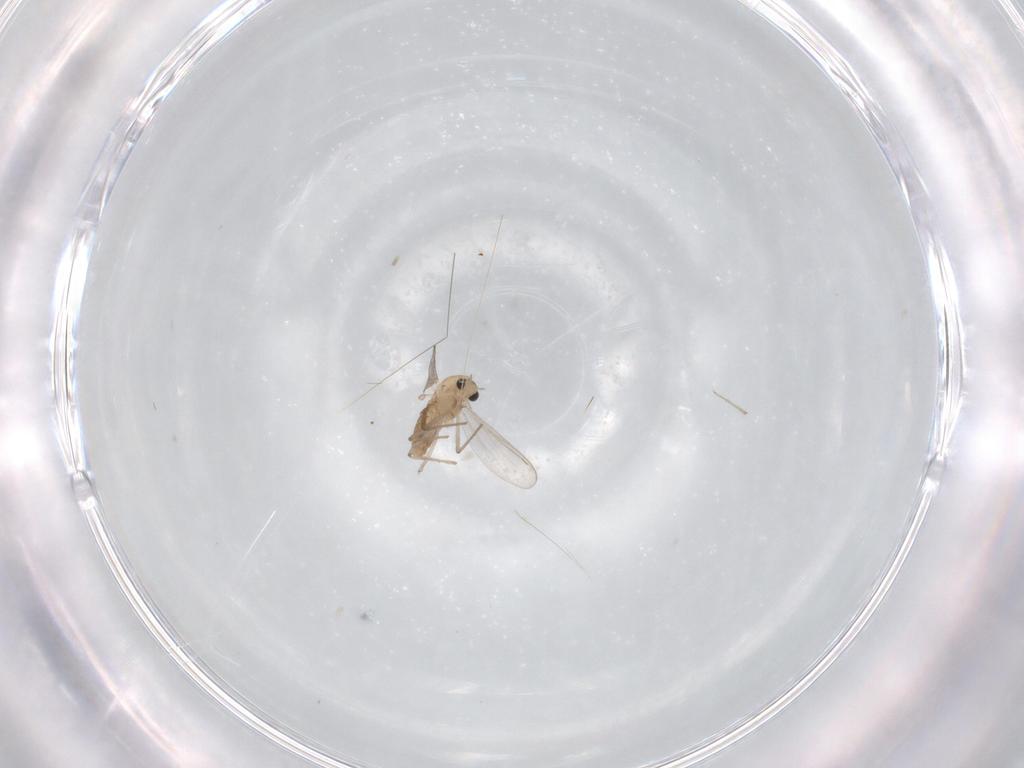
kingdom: Animalia
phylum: Arthropoda
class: Insecta
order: Diptera
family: Chironomidae
